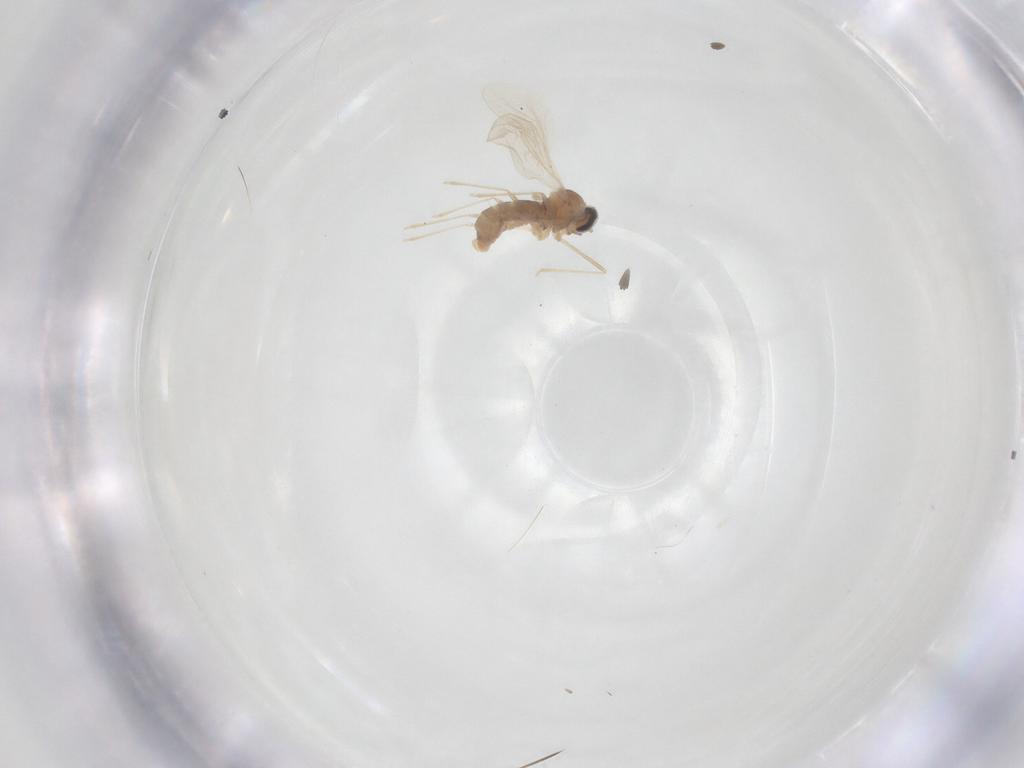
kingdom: Animalia
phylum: Arthropoda
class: Insecta
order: Diptera
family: Cecidomyiidae
